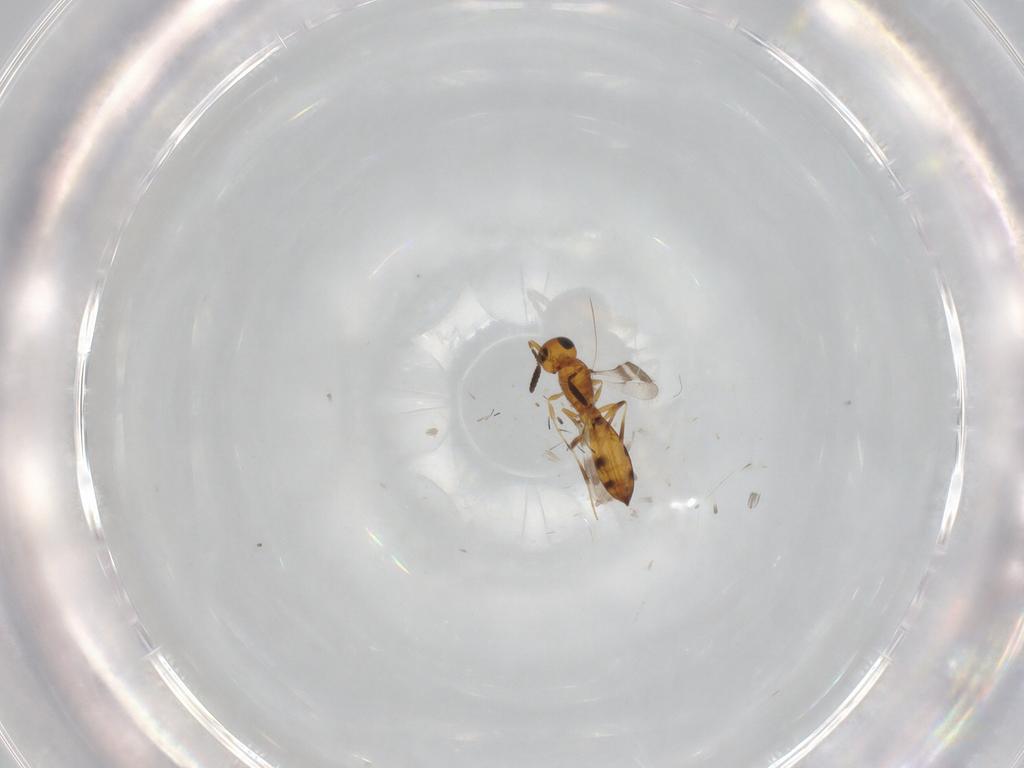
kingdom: Animalia
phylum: Arthropoda
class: Insecta
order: Hymenoptera
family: Scelionidae
